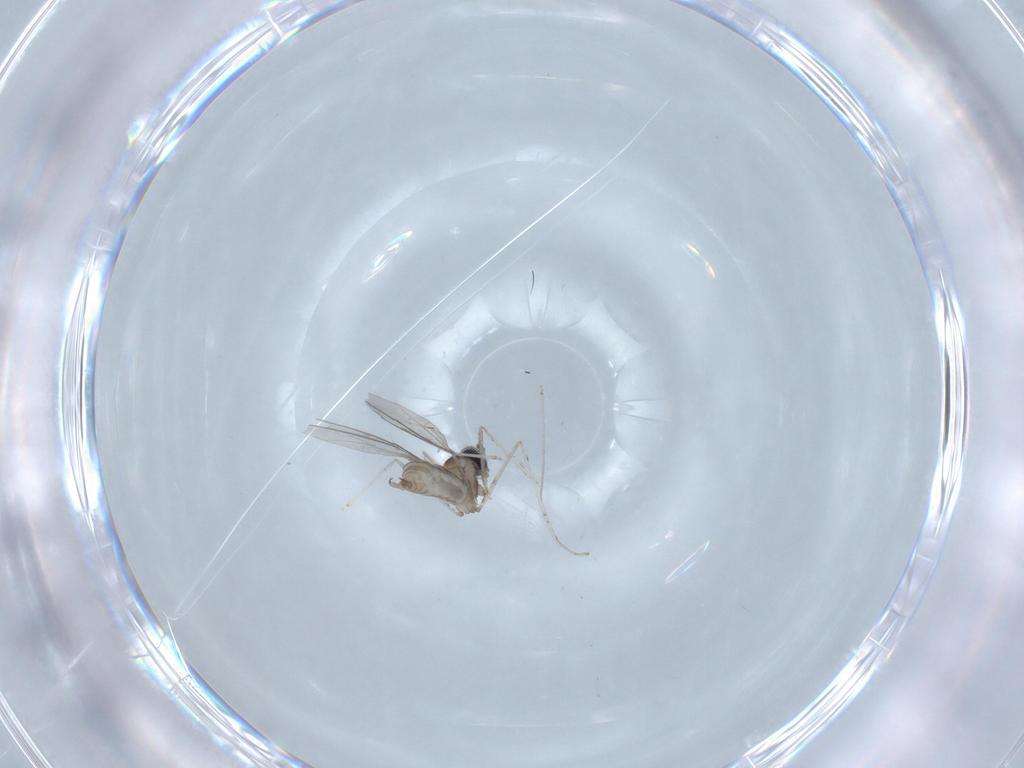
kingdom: Animalia
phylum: Arthropoda
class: Insecta
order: Diptera
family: Cecidomyiidae
